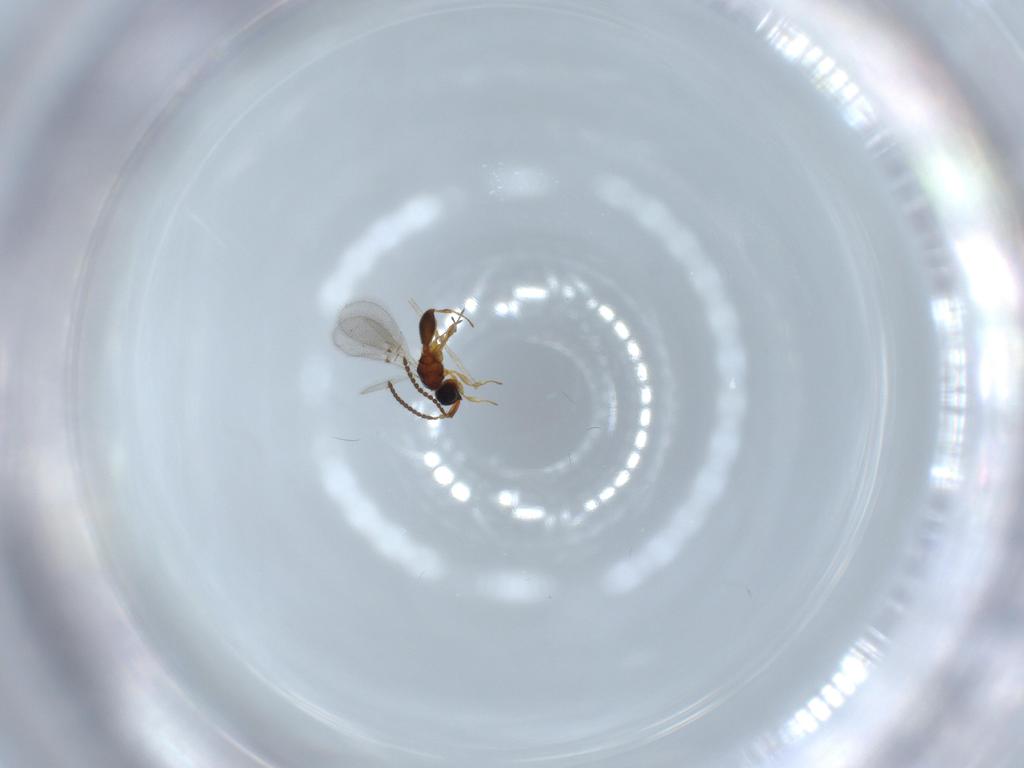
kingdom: Animalia
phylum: Arthropoda
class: Insecta
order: Hymenoptera
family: Diapriidae
